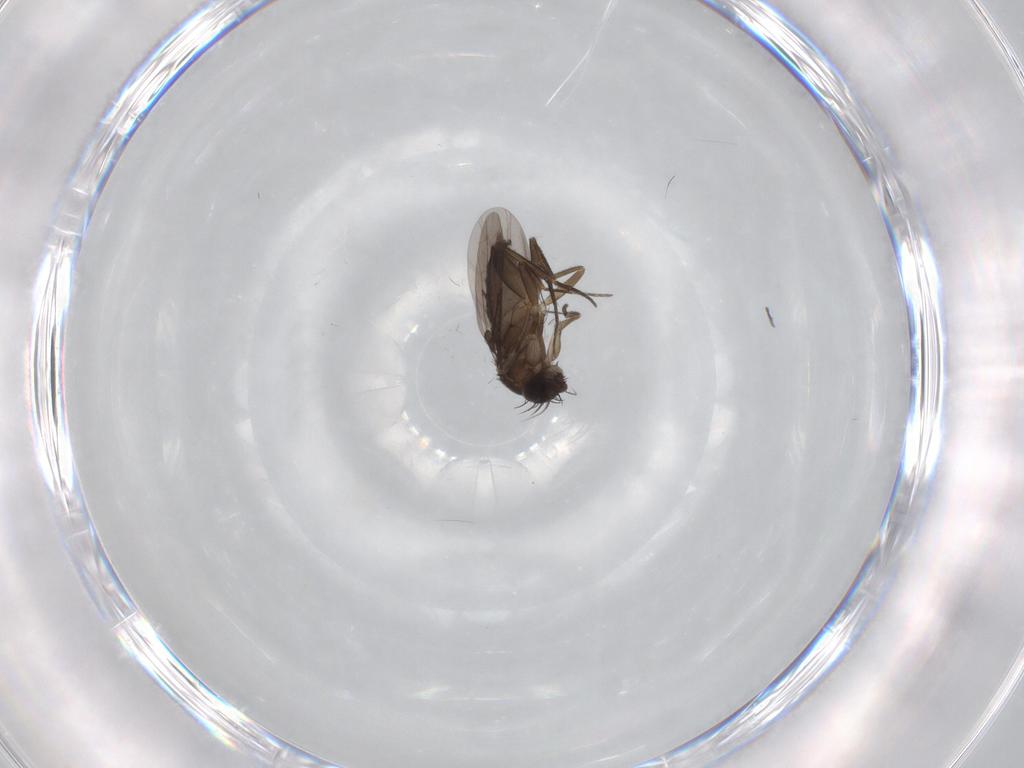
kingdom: Animalia
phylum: Arthropoda
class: Insecta
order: Diptera
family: Phoridae
